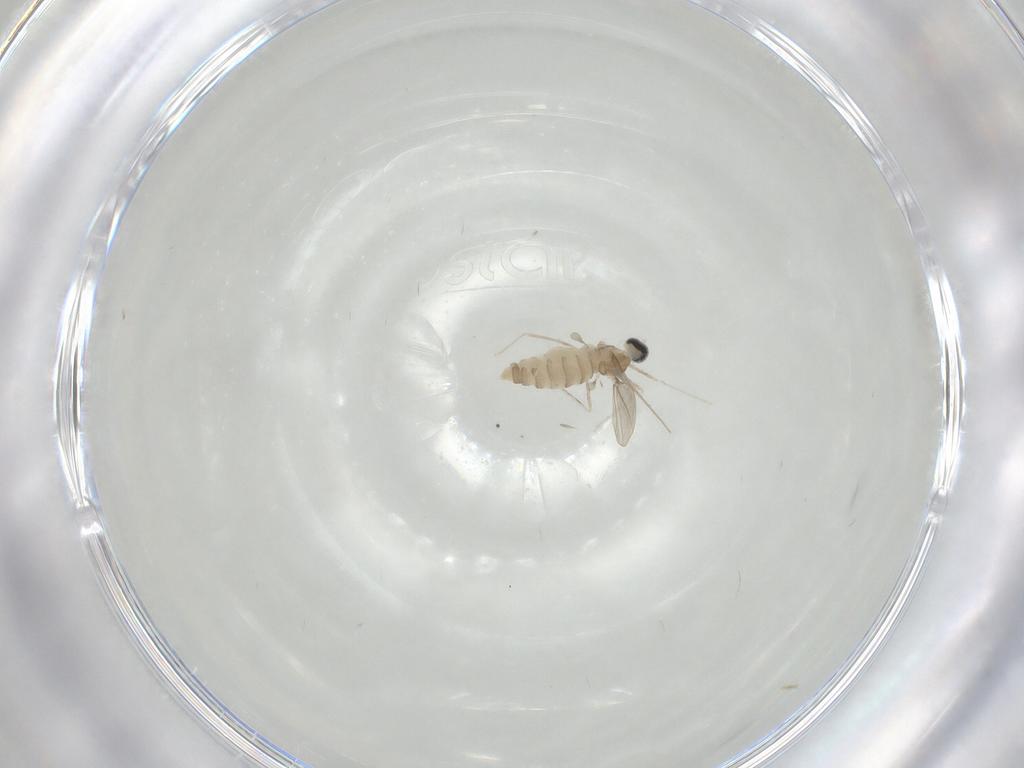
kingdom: Animalia
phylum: Arthropoda
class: Insecta
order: Diptera
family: Cecidomyiidae
